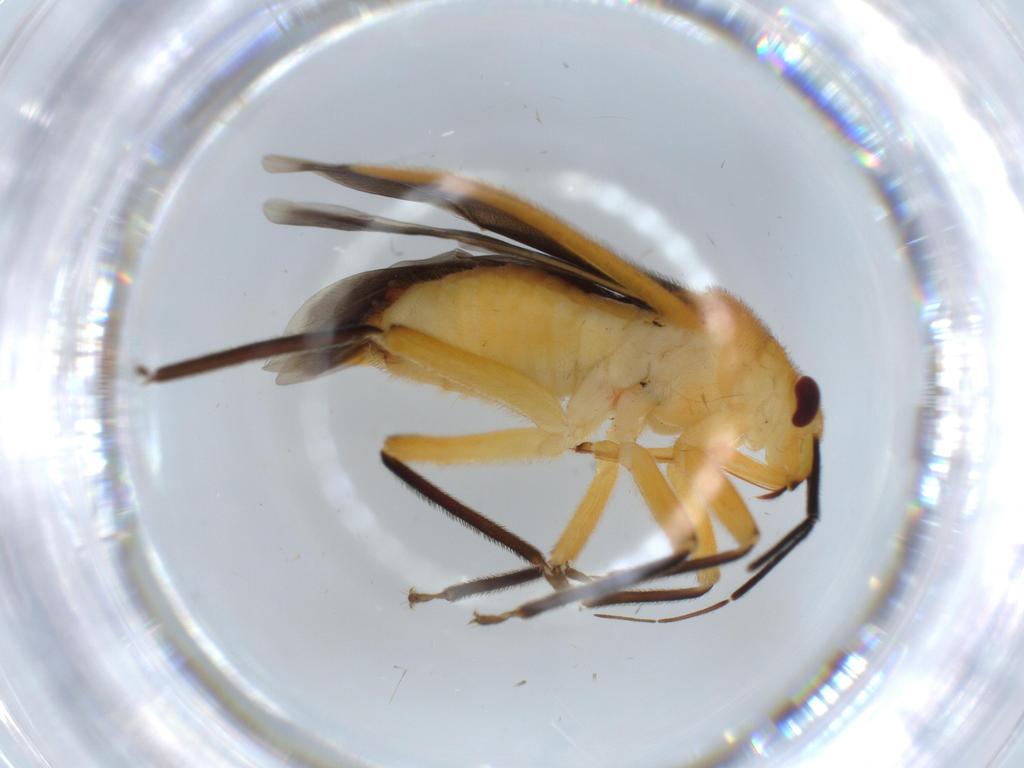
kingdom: Animalia
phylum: Arthropoda
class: Insecta
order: Hemiptera
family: Miridae
